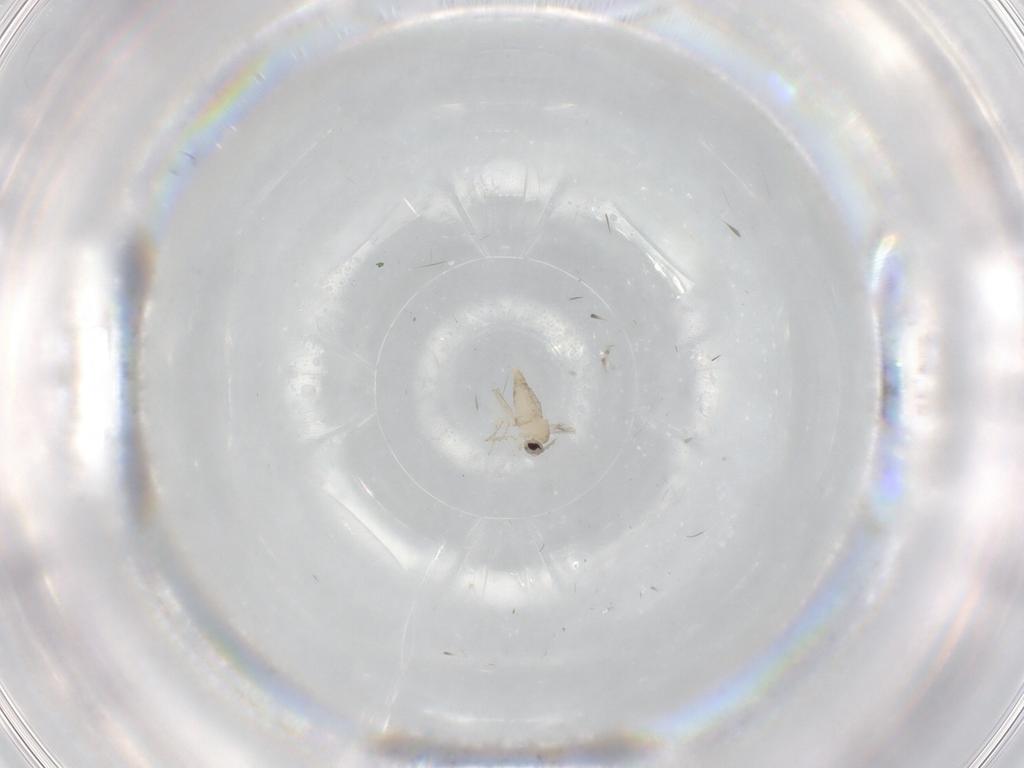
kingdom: Animalia
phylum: Arthropoda
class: Insecta
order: Diptera
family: Cecidomyiidae
